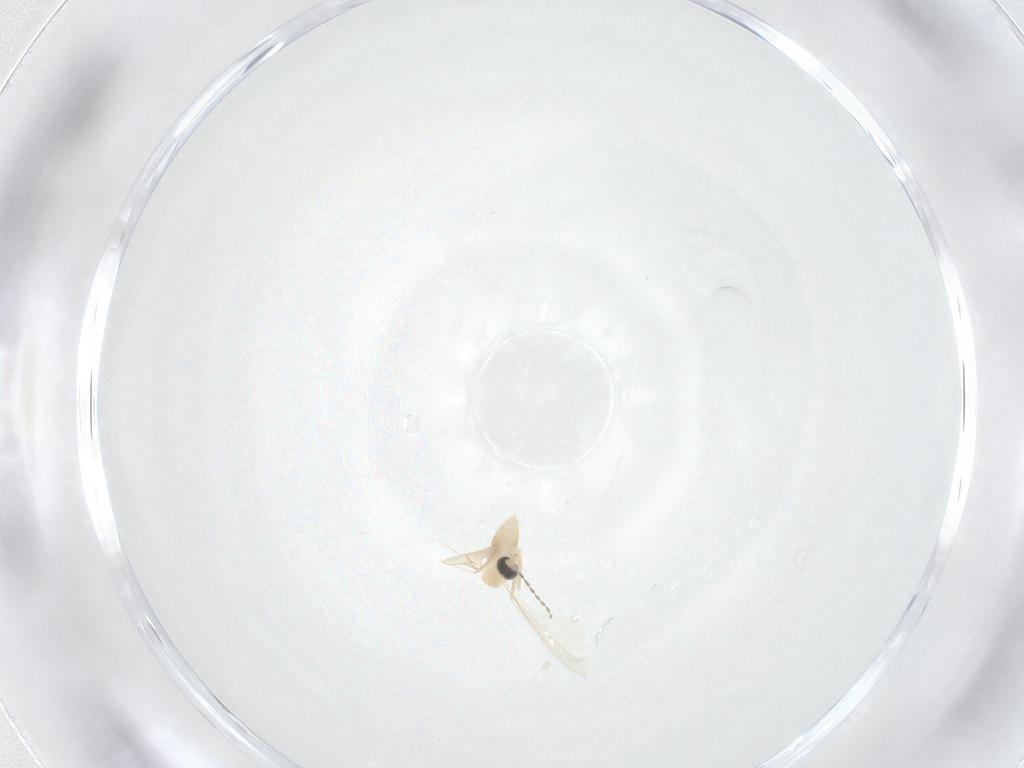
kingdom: Animalia
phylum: Arthropoda
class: Insecta
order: Diptera
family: Cecidomyiidae
